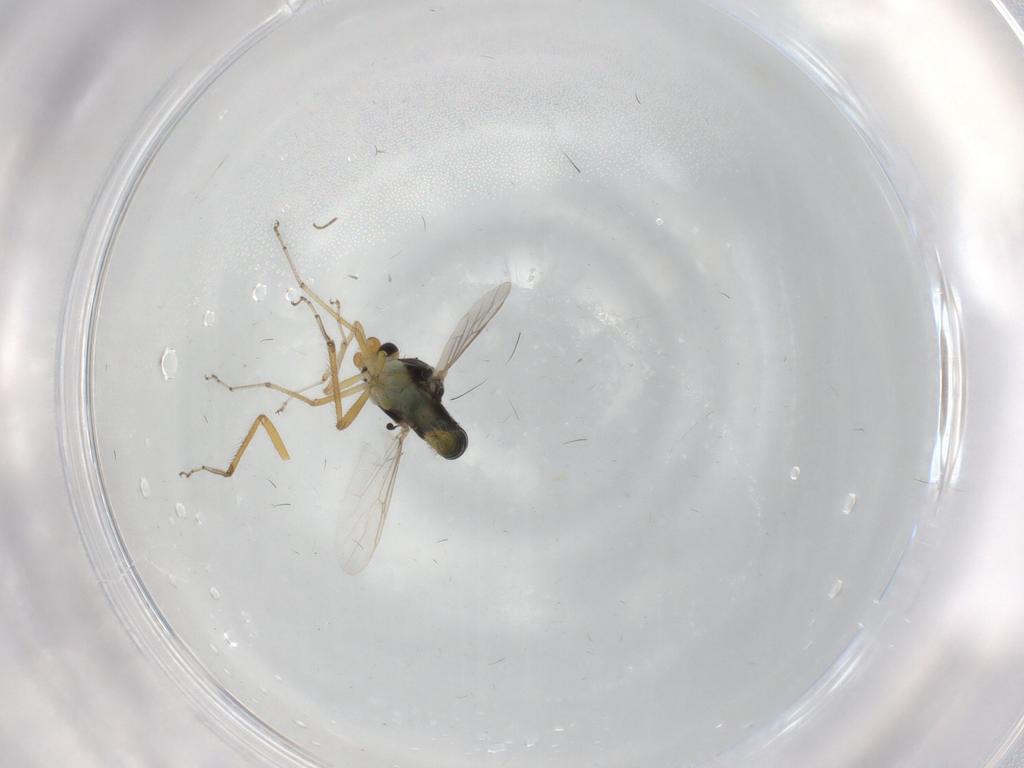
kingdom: Animalia
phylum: Arthropoda
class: Insecta
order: Diptera
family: Ceratopogonidae
